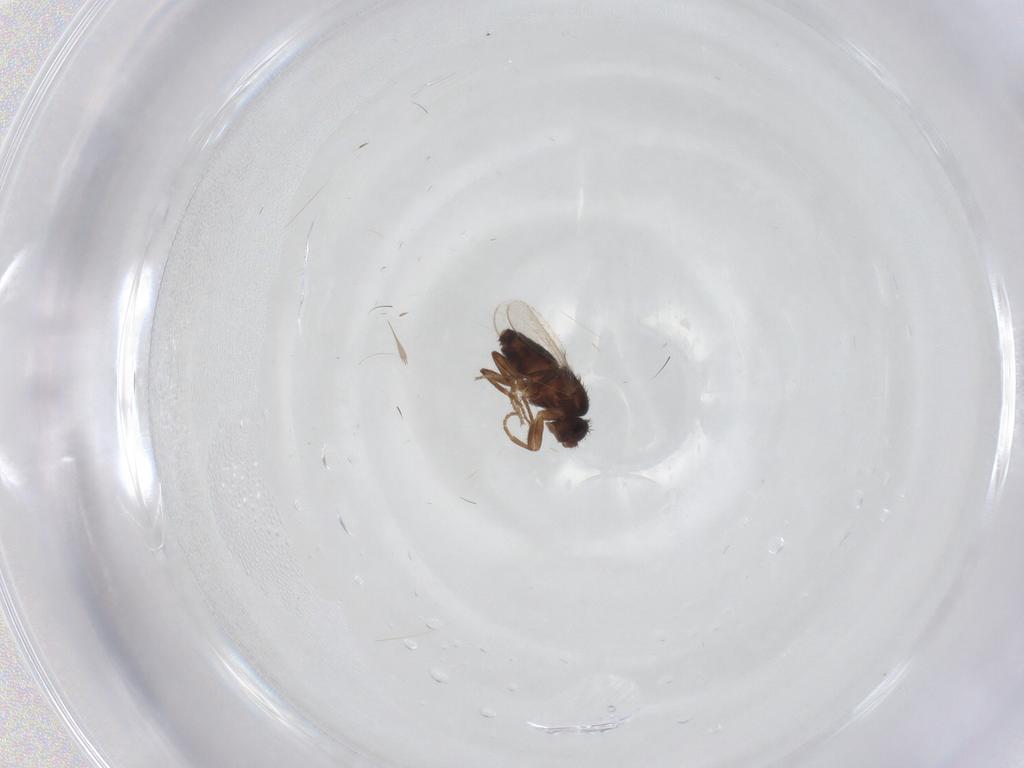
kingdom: Animalia
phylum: Arthropoda
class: Insecta
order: Diptera
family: Sphaeroceridae
